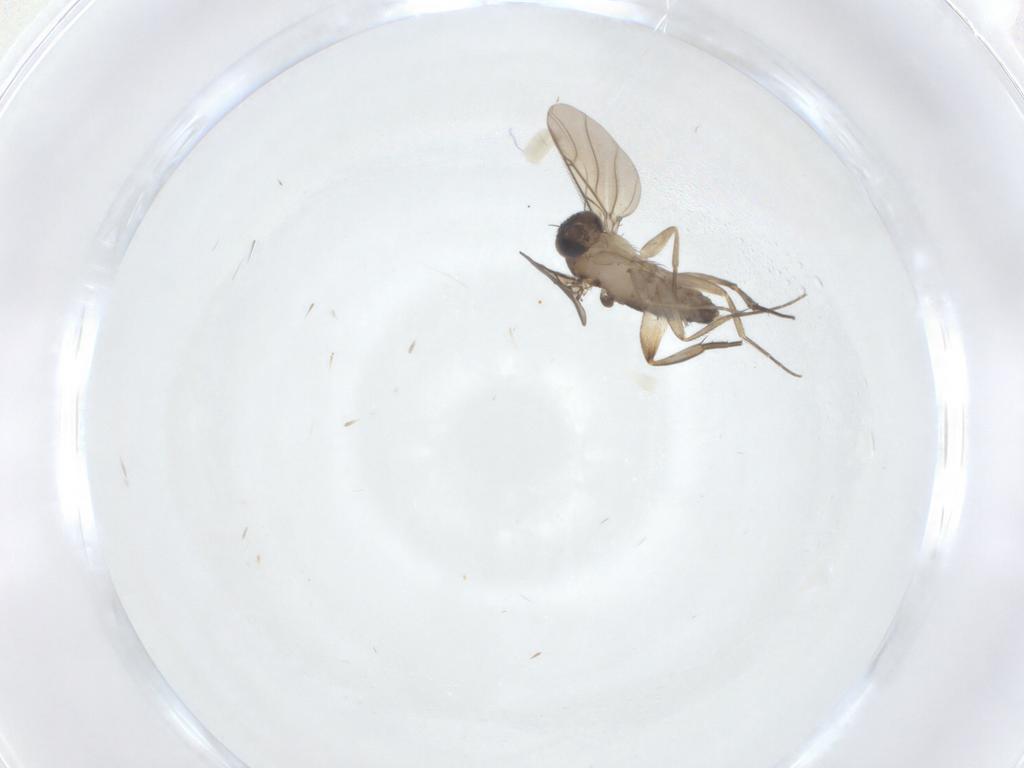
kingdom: Animalia
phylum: Arthropoda
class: Insecta
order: Diptera
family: Phoridae
